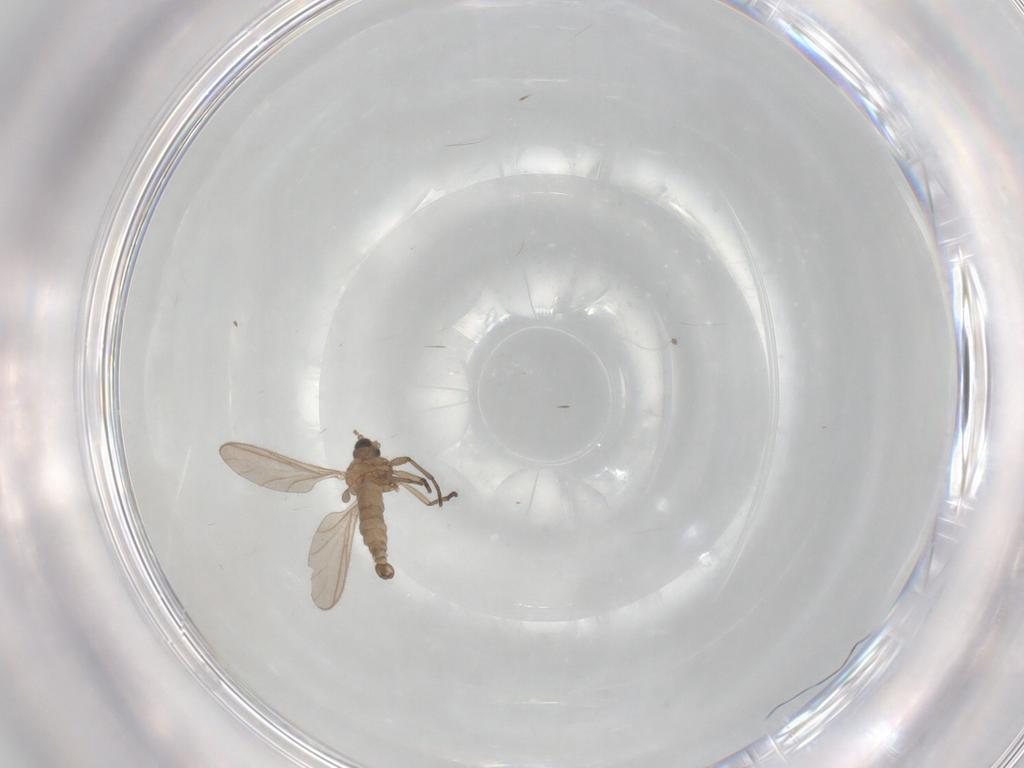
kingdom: Animalia
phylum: Arthropoda
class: Insecta
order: Diptera
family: Sciaridae
